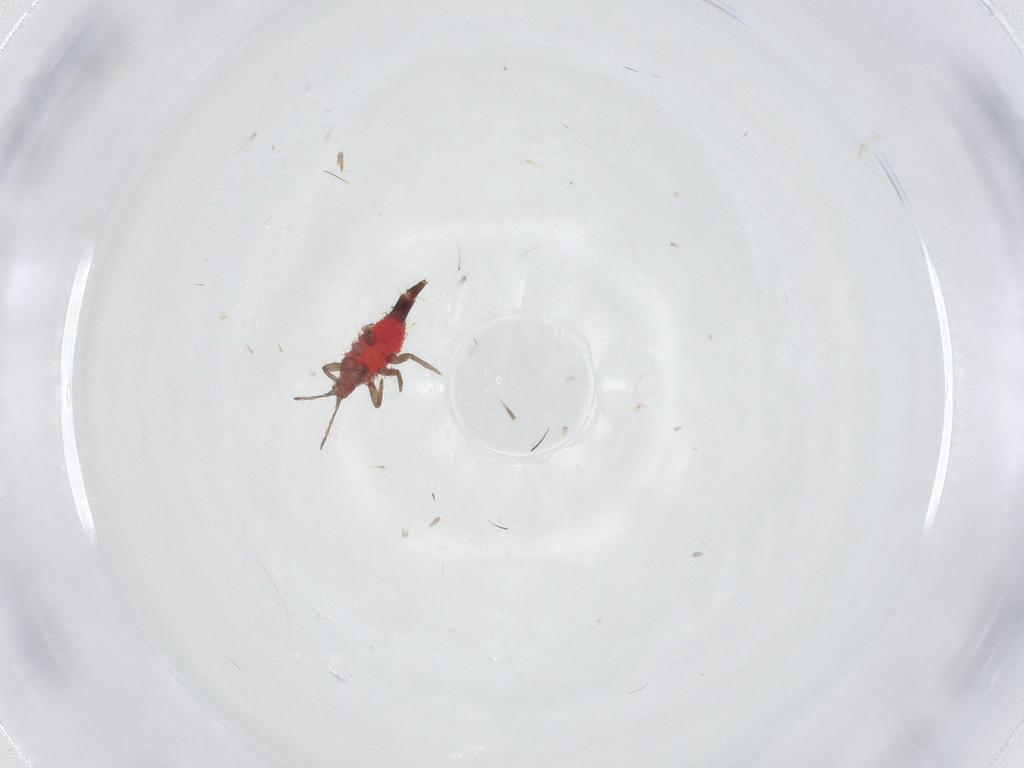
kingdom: Animalia
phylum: Arthropoda
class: Insecta
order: Thysanoptera
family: Phlaeothripidae
